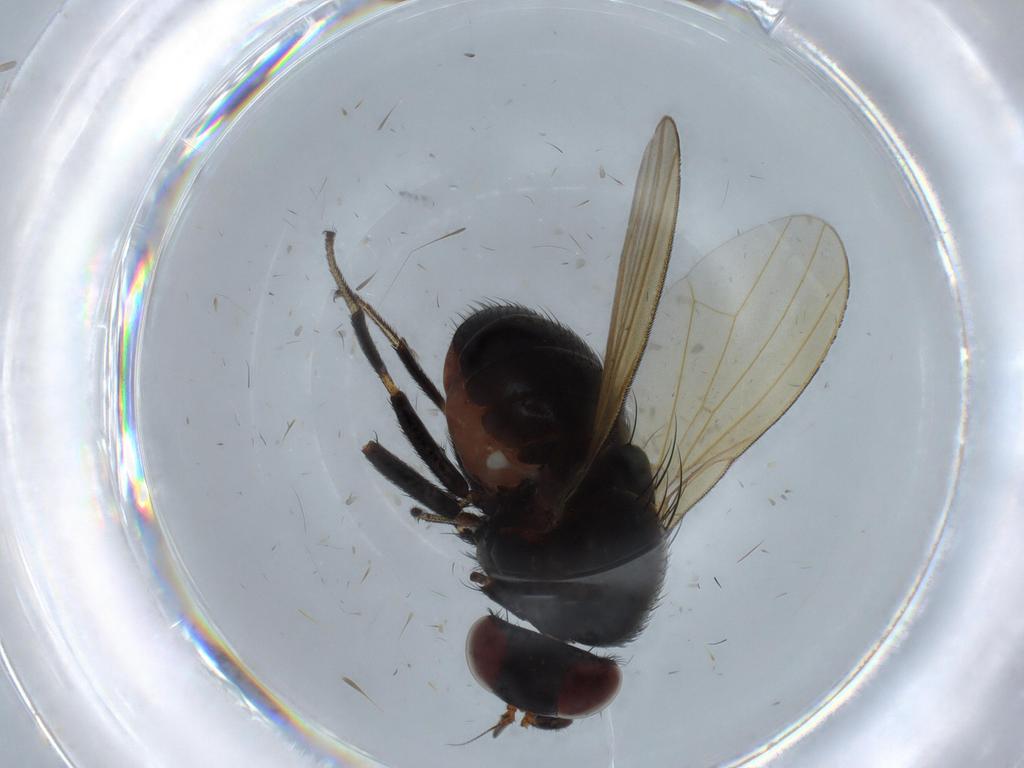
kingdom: Animalia
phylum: Arthropoda
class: Insecta
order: Diptera
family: Lauxaniidae
